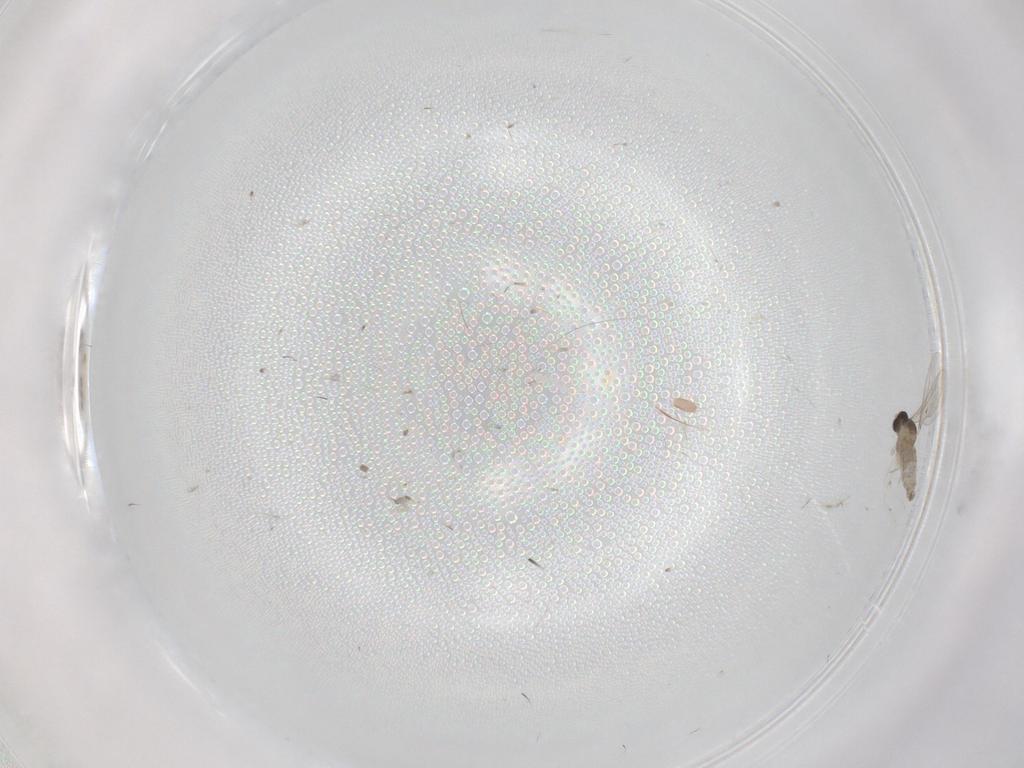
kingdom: Animalia
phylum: Arthropoda
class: Insecta
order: Diptera
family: Cecidomyiidae
